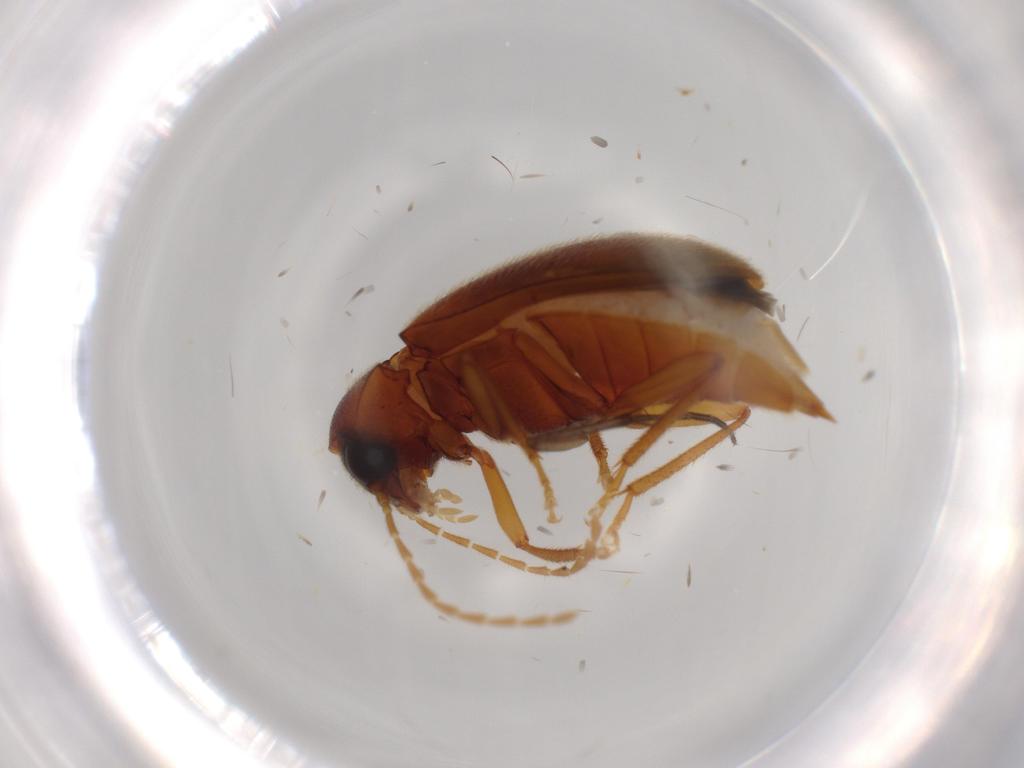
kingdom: Animalia
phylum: Arthropoda
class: Insecta
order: Coleoptera
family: Ptilodactylidae
